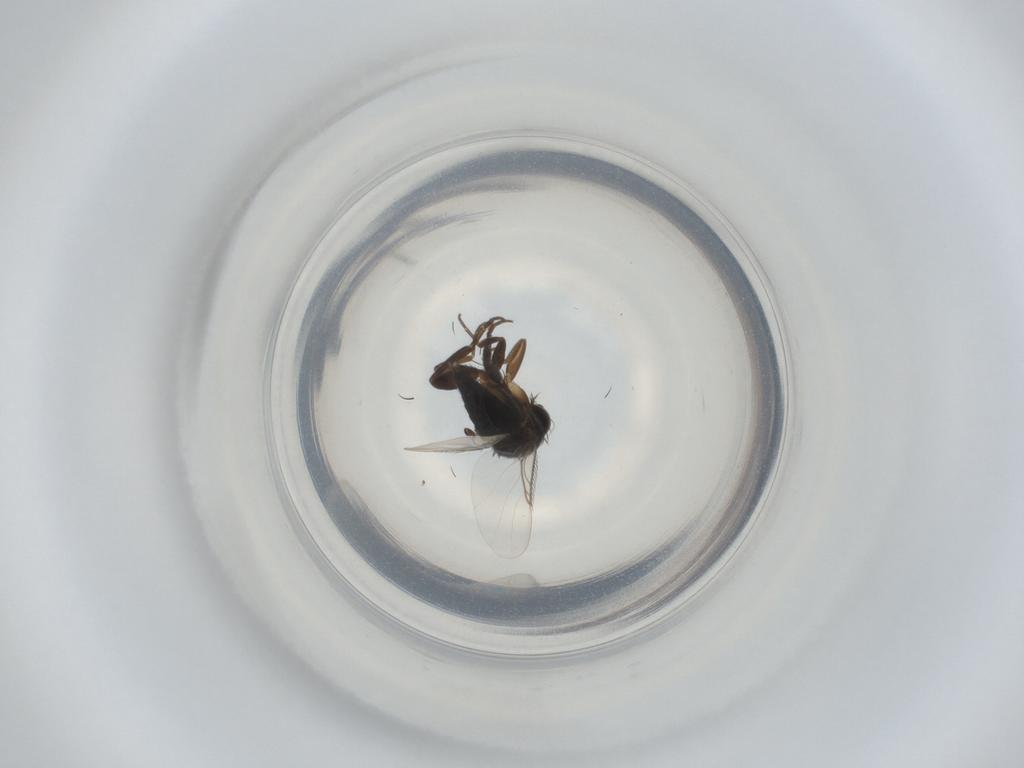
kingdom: Animalia
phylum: Arthropoda
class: Insecta
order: Diptera
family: Phoridae
